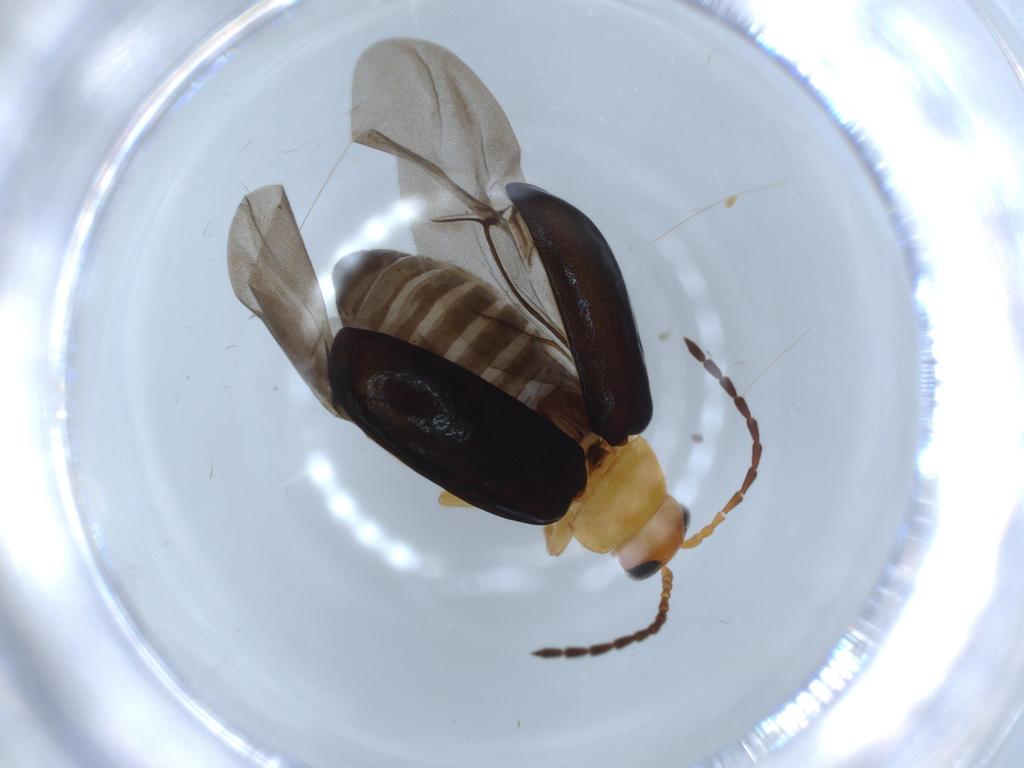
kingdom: Animalia
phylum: Arthropoda
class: Insecta
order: Coleoptera
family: Chrysomelidae
